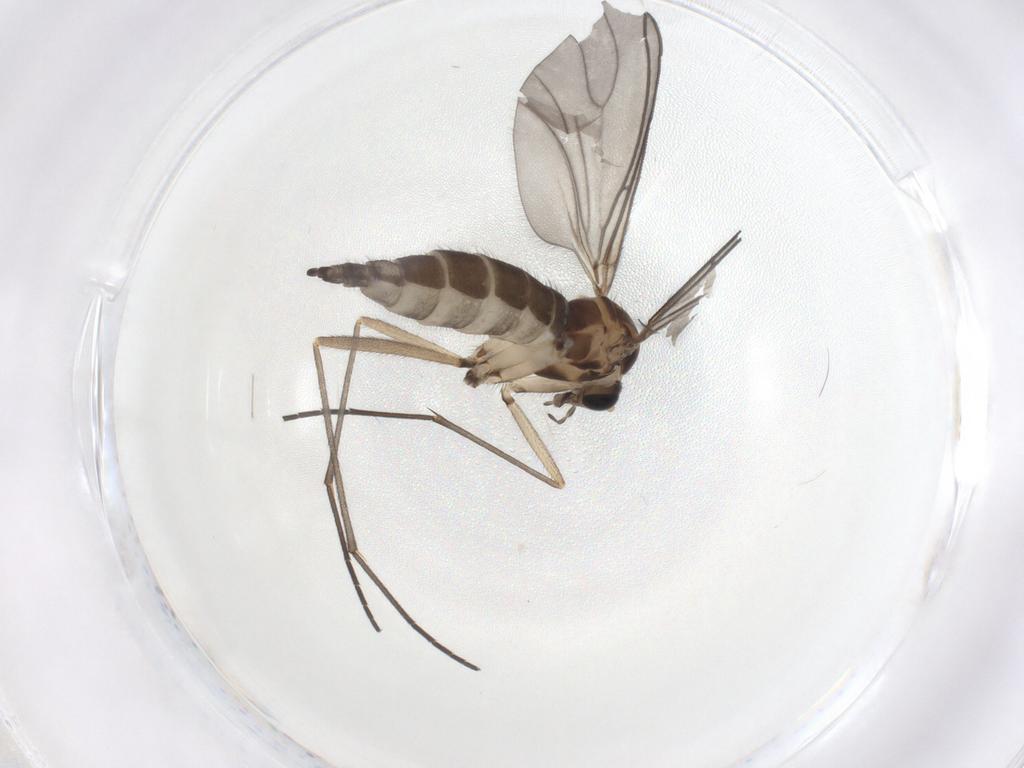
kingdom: Animalia
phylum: Arthropoda
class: Insecta
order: Diptera
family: Sciaridae
